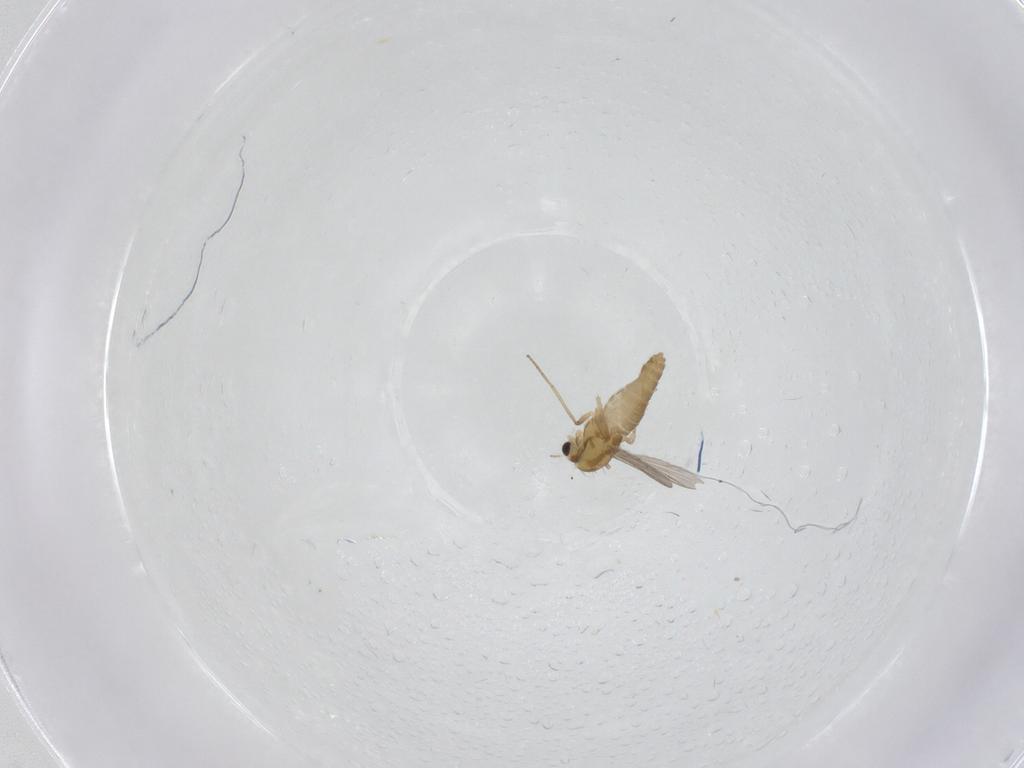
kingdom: Animalia
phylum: Arthropoda
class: Insecta
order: Diptera
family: Chironomidae
